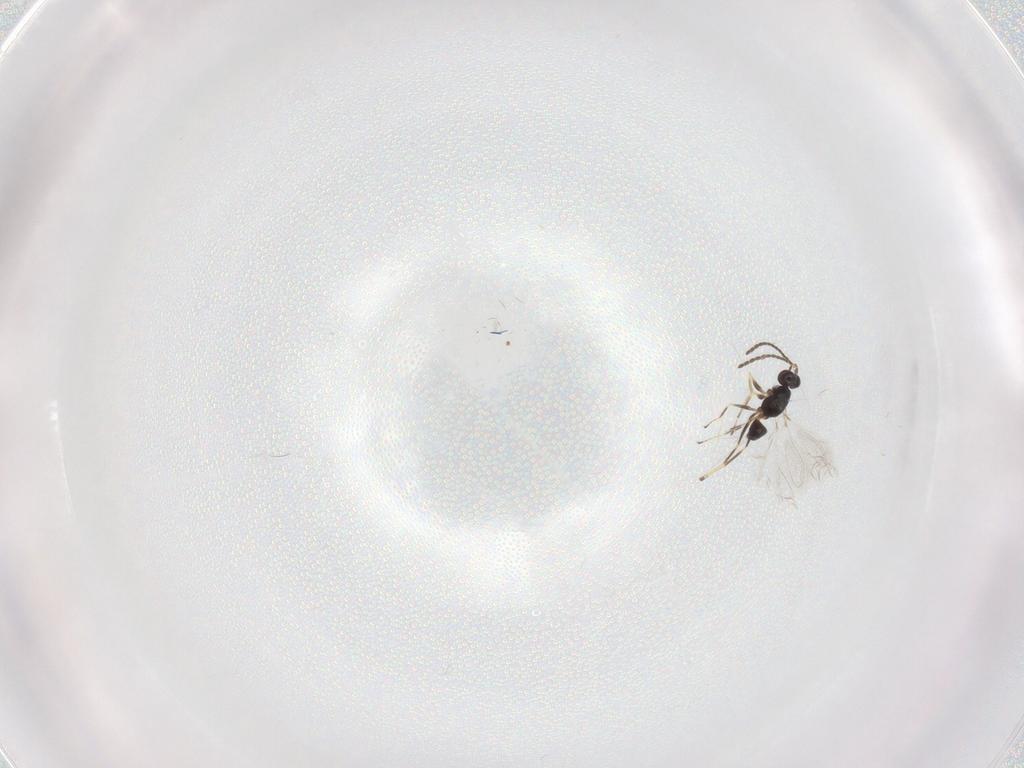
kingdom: Animalia
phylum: Arthropoda
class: Insecta
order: Hymenoptera
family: Mymaridae
